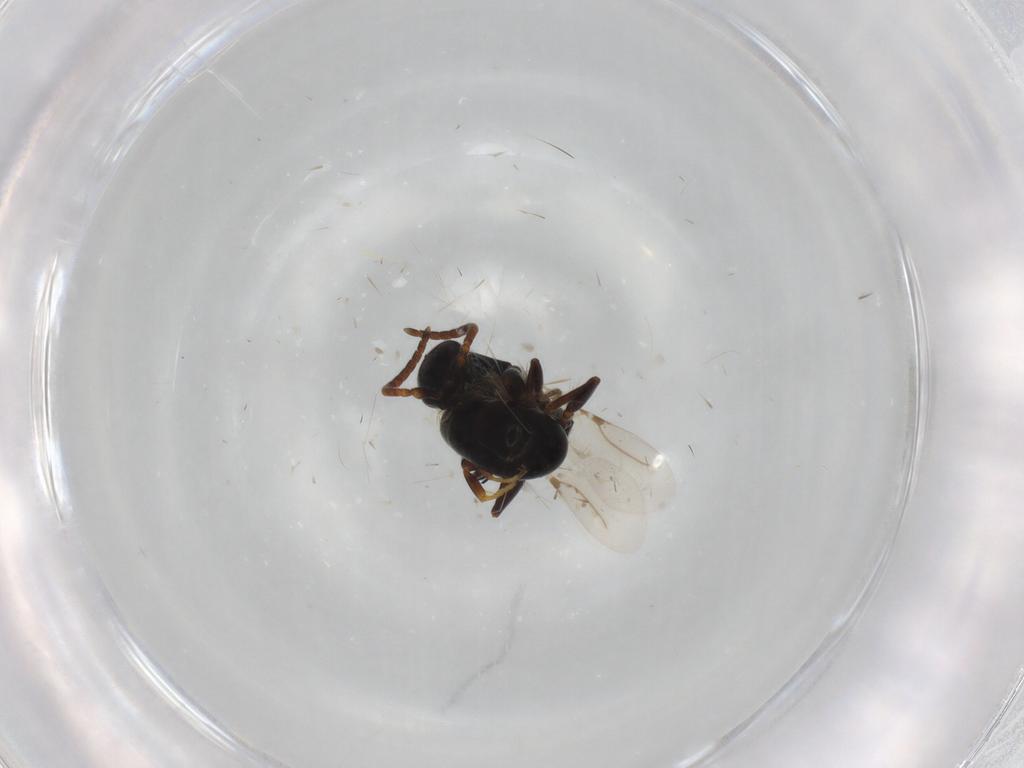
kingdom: Animalia
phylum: Arthropoda
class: Insecta
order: Hymenoptera
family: Bethylidae
